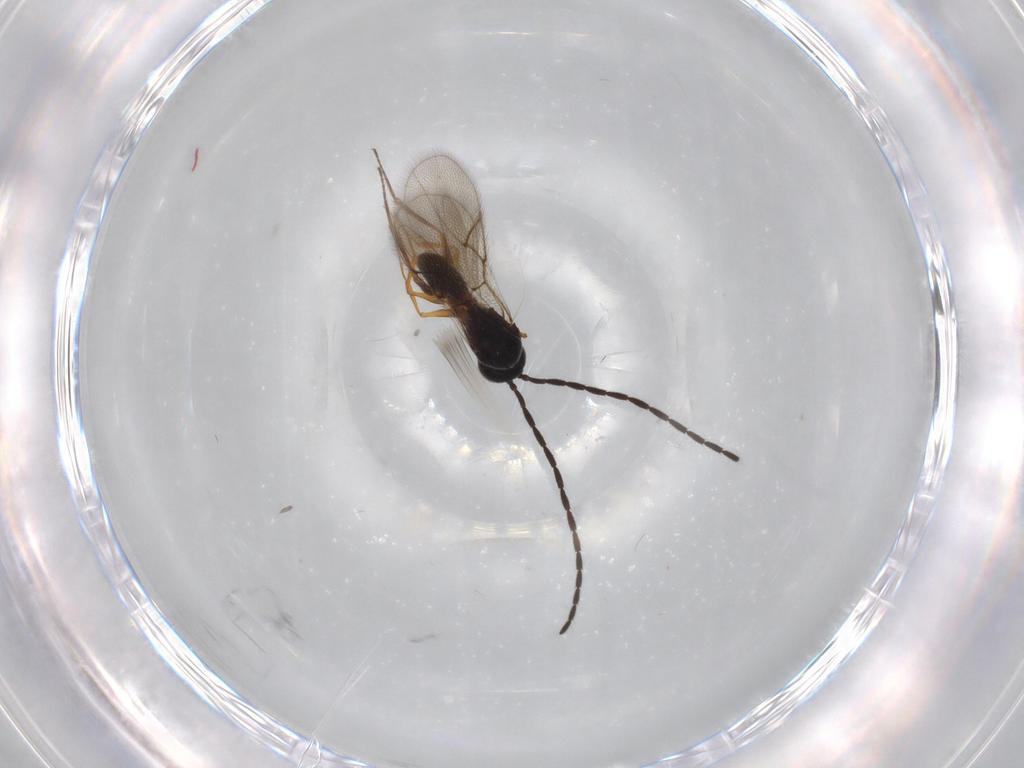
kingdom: Animalia
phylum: Arthropoda
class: Insecta
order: Hymenoptera
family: Figitidae
